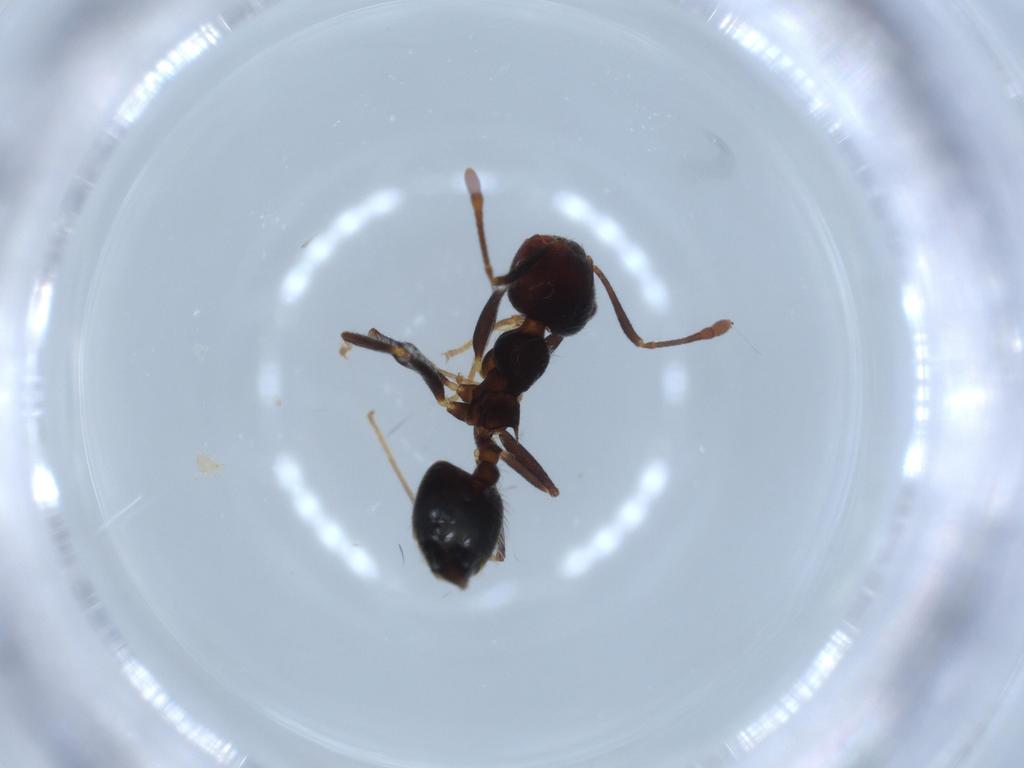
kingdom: Animalia
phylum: Arthropoda
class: Insecta
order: Hymenoptera
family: Formicidae
